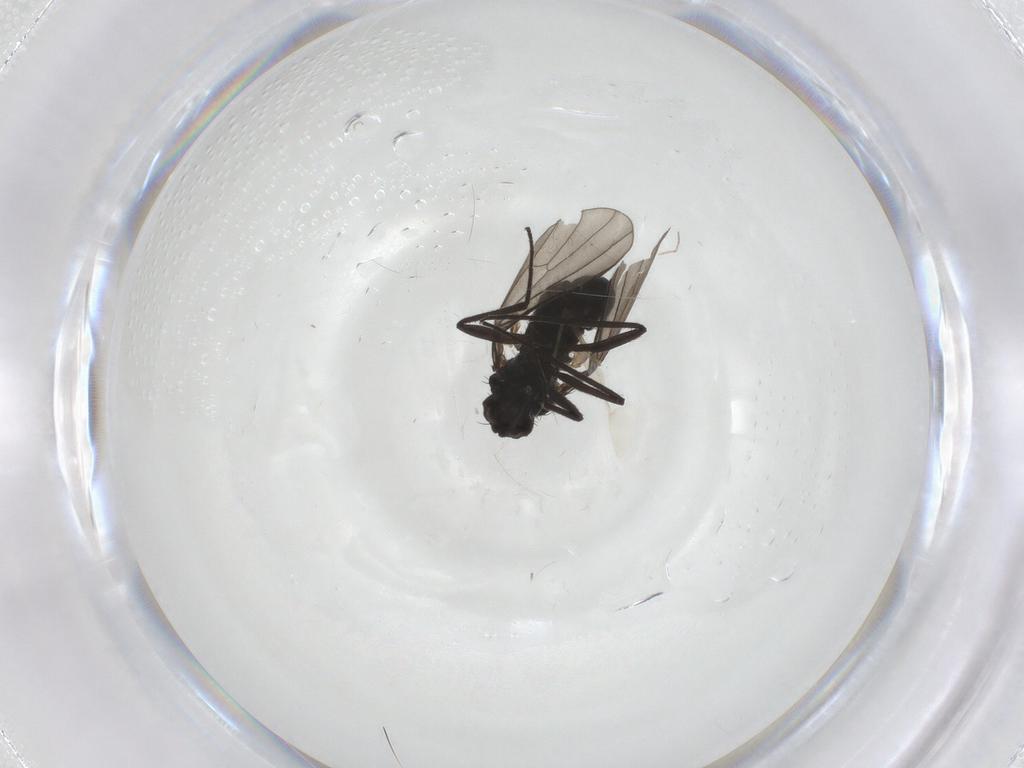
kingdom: Animalia
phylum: Arthropoda
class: Insecta
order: Diptera
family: Dolichopodidae
